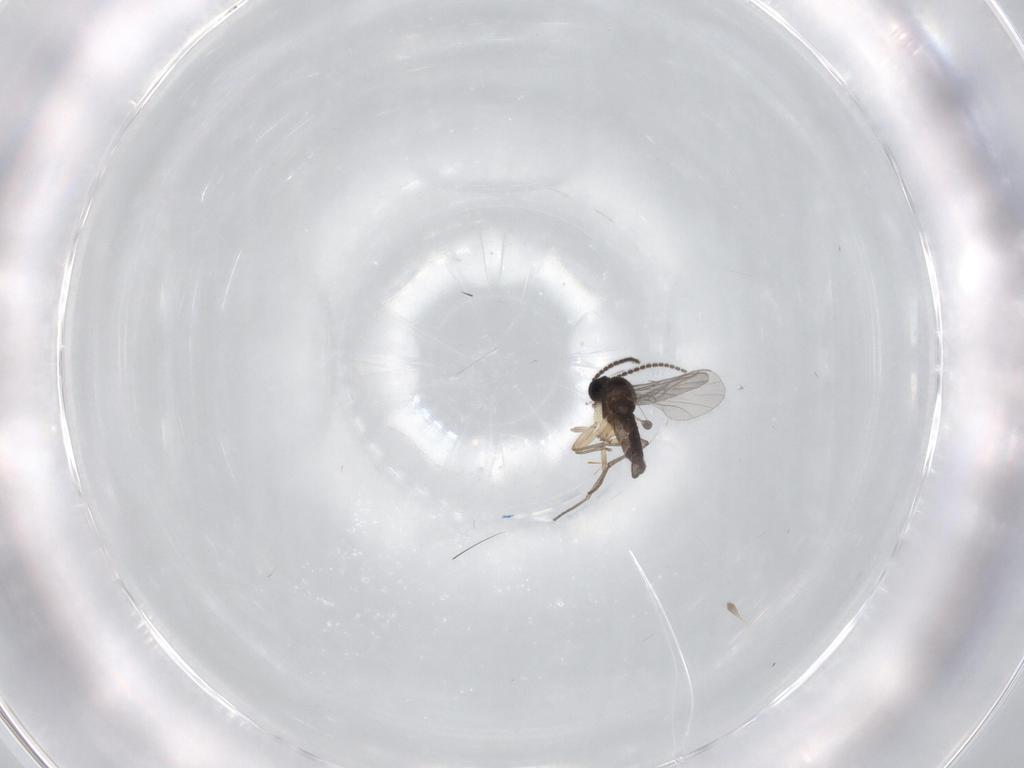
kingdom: Animalia
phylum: Arthropoda
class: Insecta
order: Diptera
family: Sciaridae
